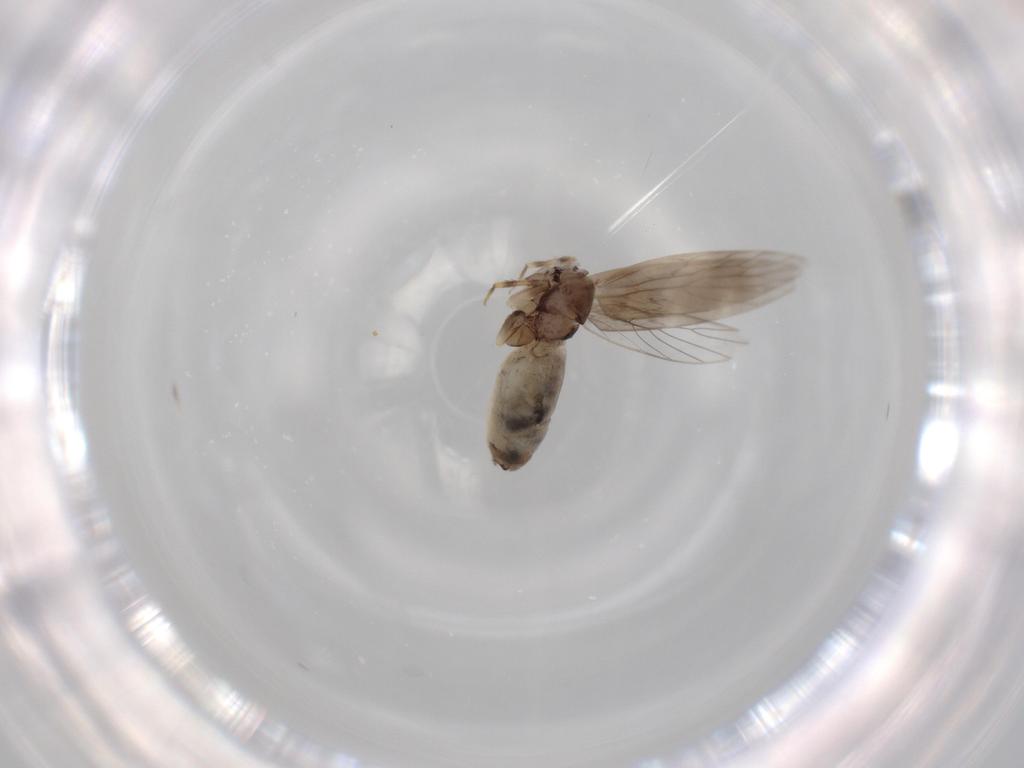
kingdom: Animalia
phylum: Arthropoda
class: Insecta
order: Psocodea
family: Lepidopsocidae
